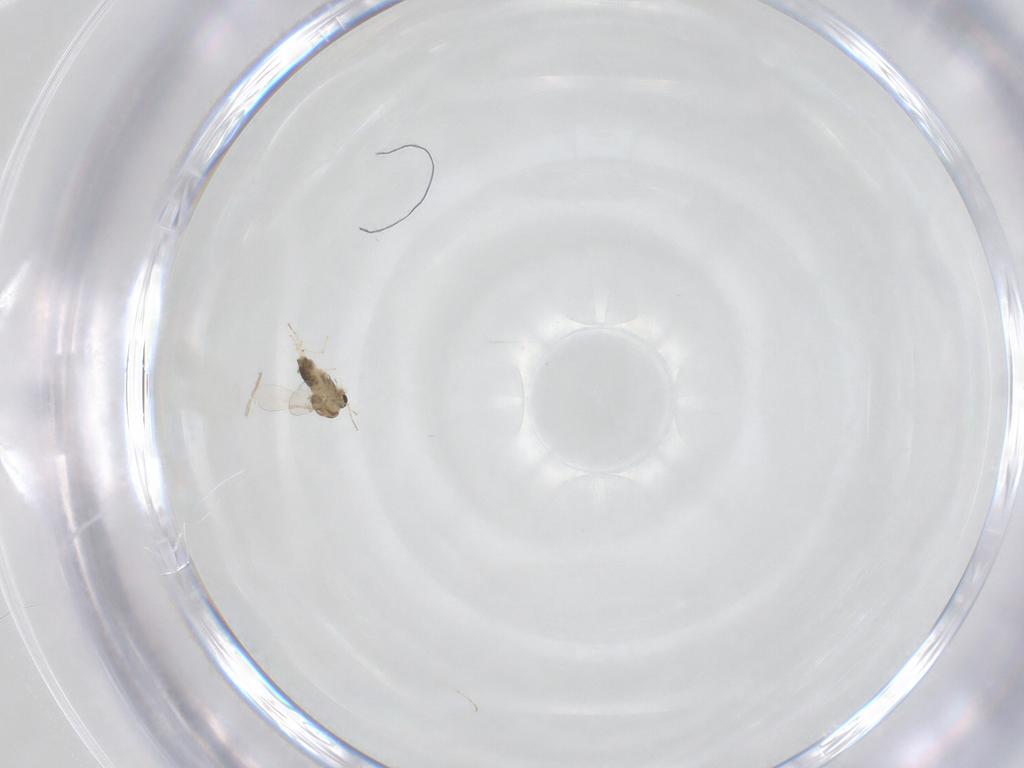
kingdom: Animalia
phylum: Arthropoda
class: Insecta
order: Diptera
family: Chironomidae
